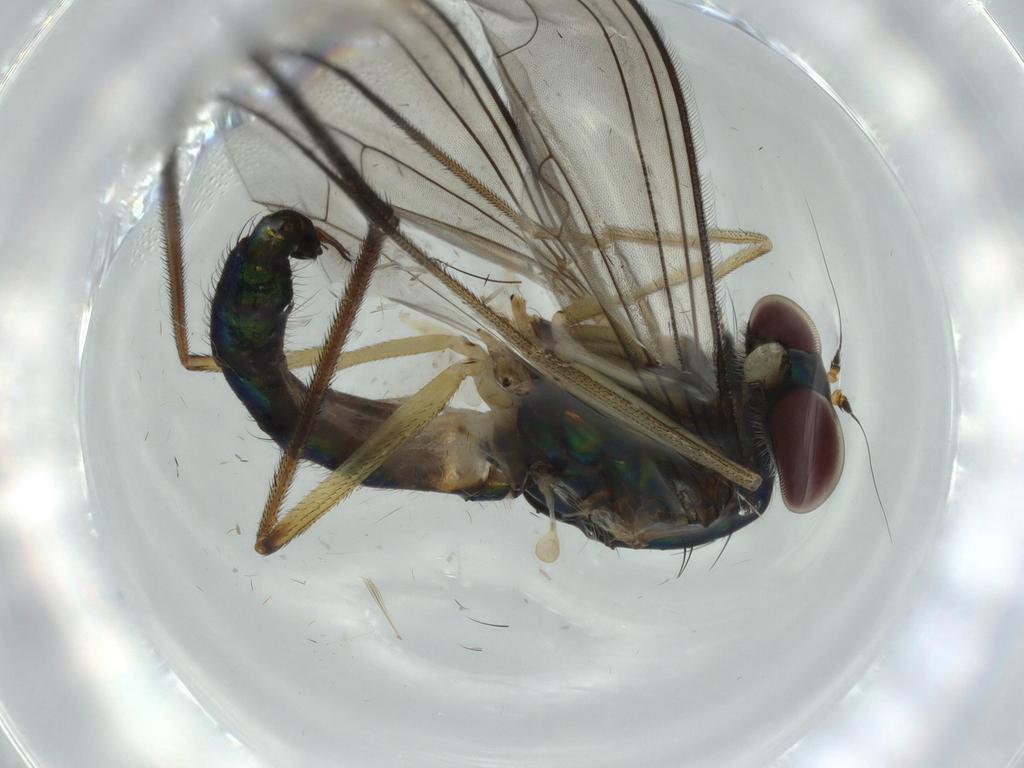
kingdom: Animalia
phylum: Arthropoda
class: Insecta
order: Diptera
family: Dolichopodidae
